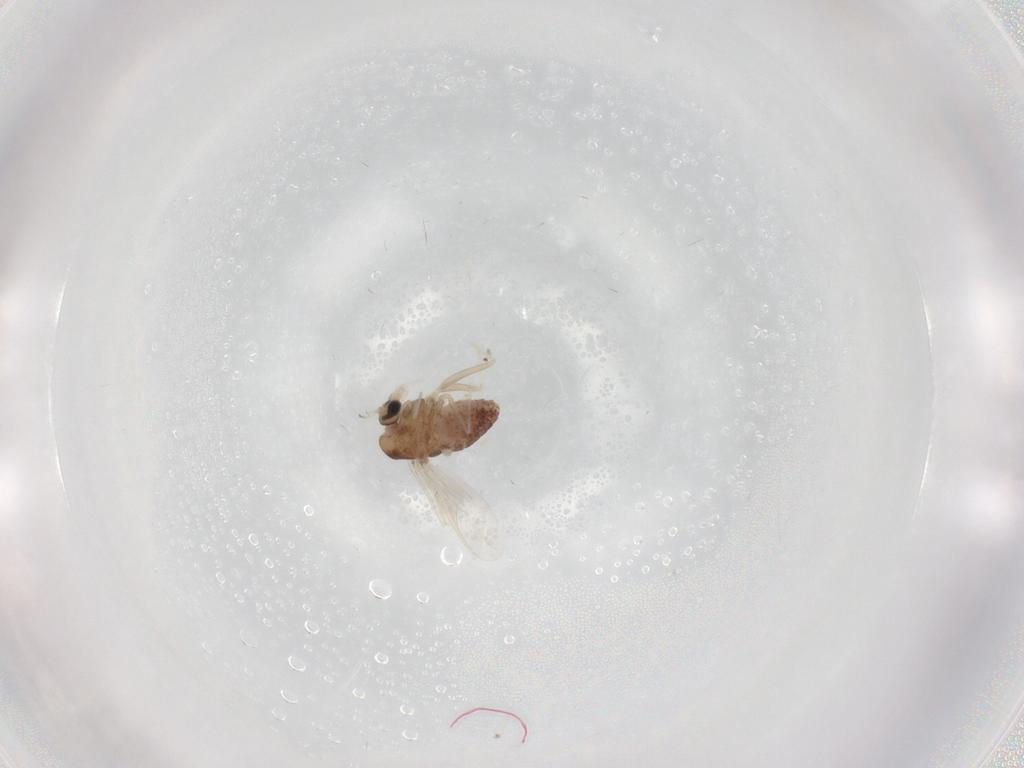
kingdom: Animalia
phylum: Arthropoda
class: Insecta
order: Diptera
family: Chironomidae
